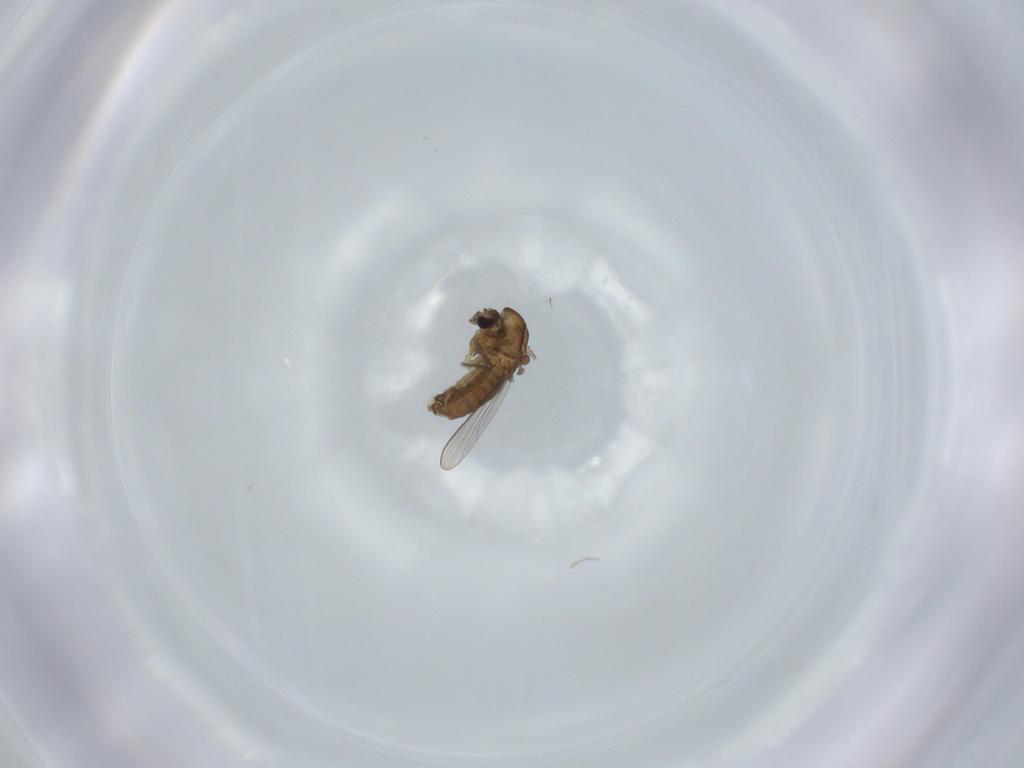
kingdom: Animalia
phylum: Arthropoda
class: Insecta
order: Diptera
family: Chironomidae
